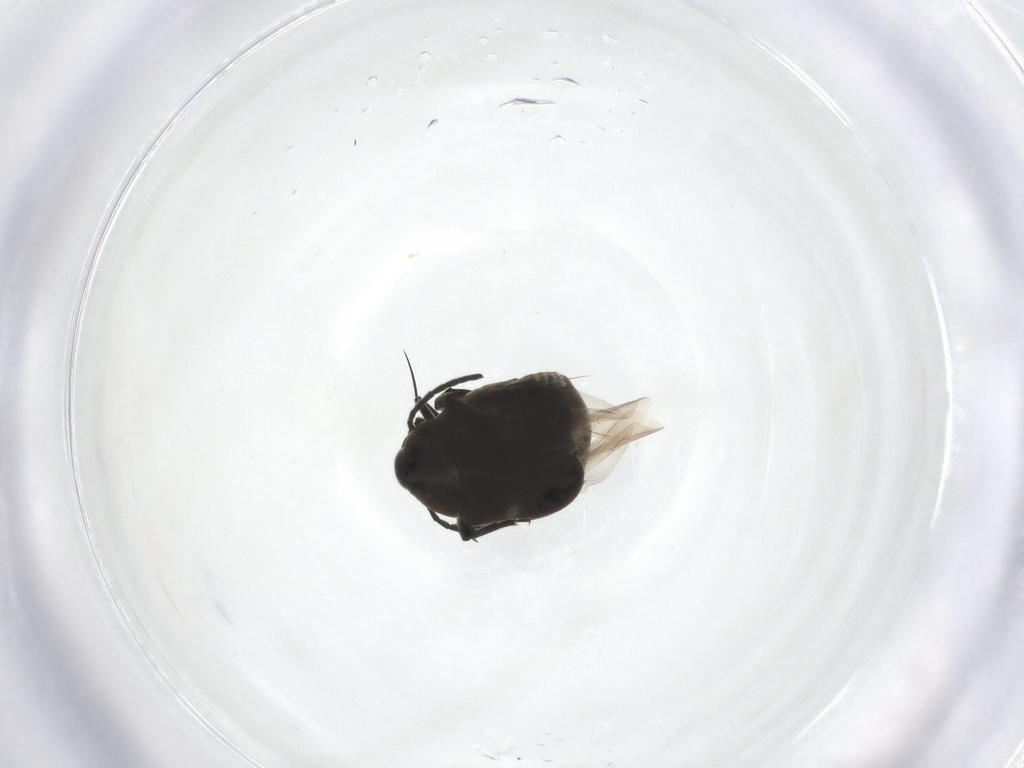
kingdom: Animalia
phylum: Arthropoda
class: Insecta
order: Coleoptera
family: Chrysomelidae
